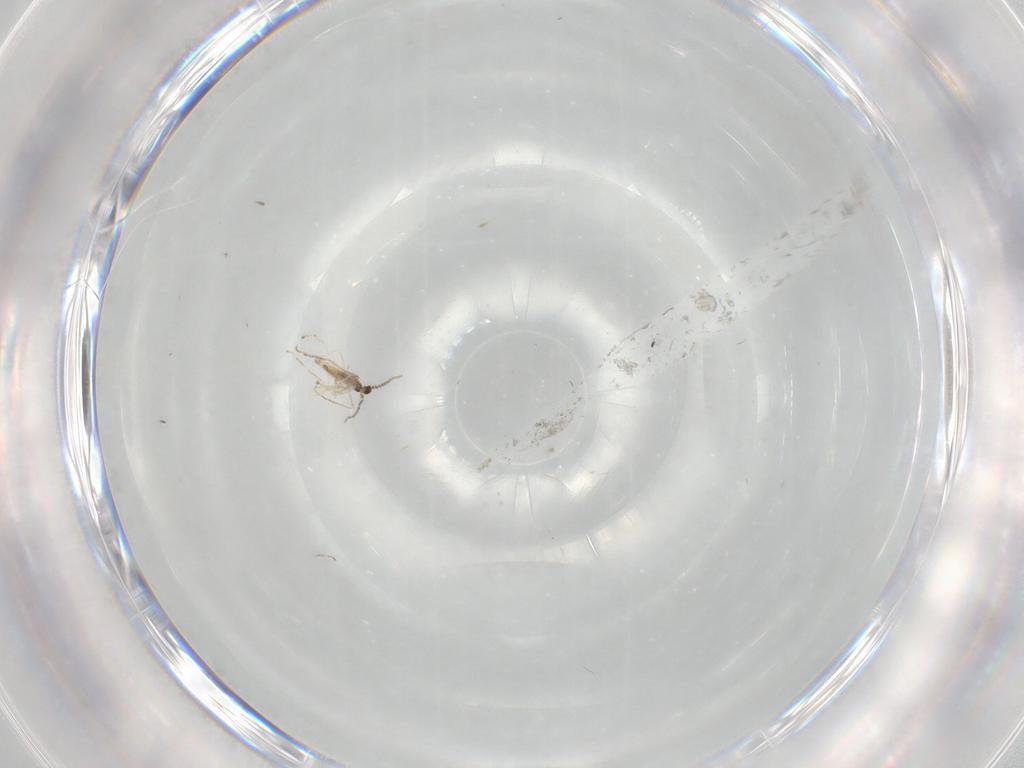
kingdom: Animalia
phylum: Arthropoda
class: Insecta
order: Diptera
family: Cecidomyiidae
